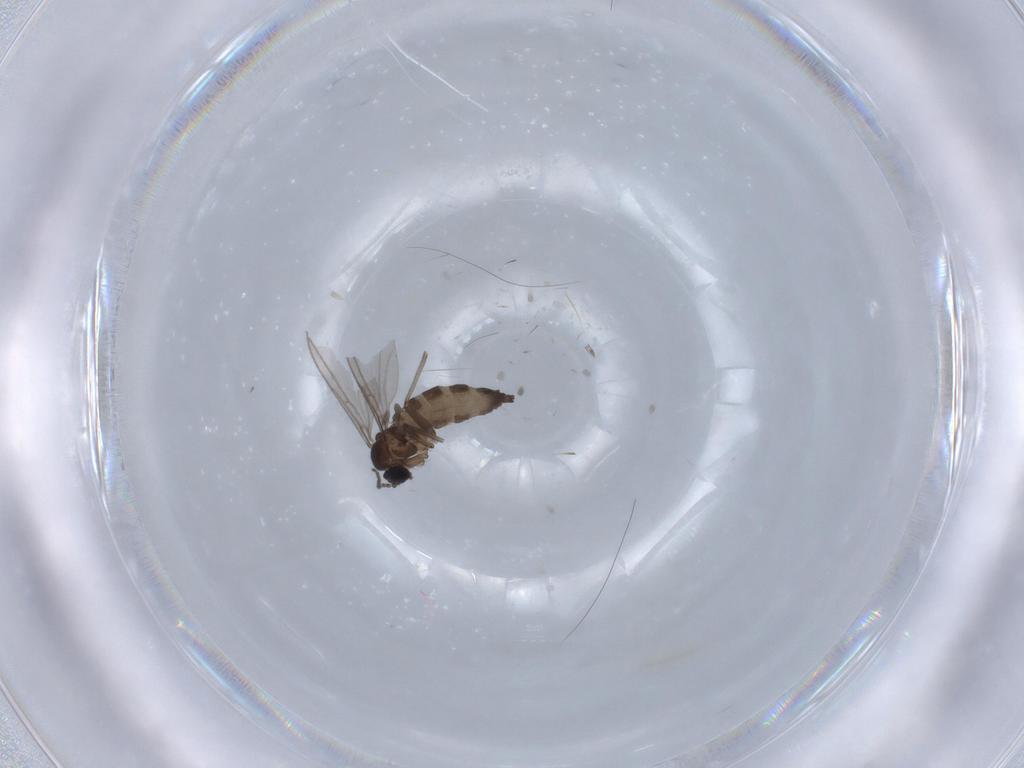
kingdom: Animalia
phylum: Arthropoda
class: Insecta
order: Diptera
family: Sciaridae
